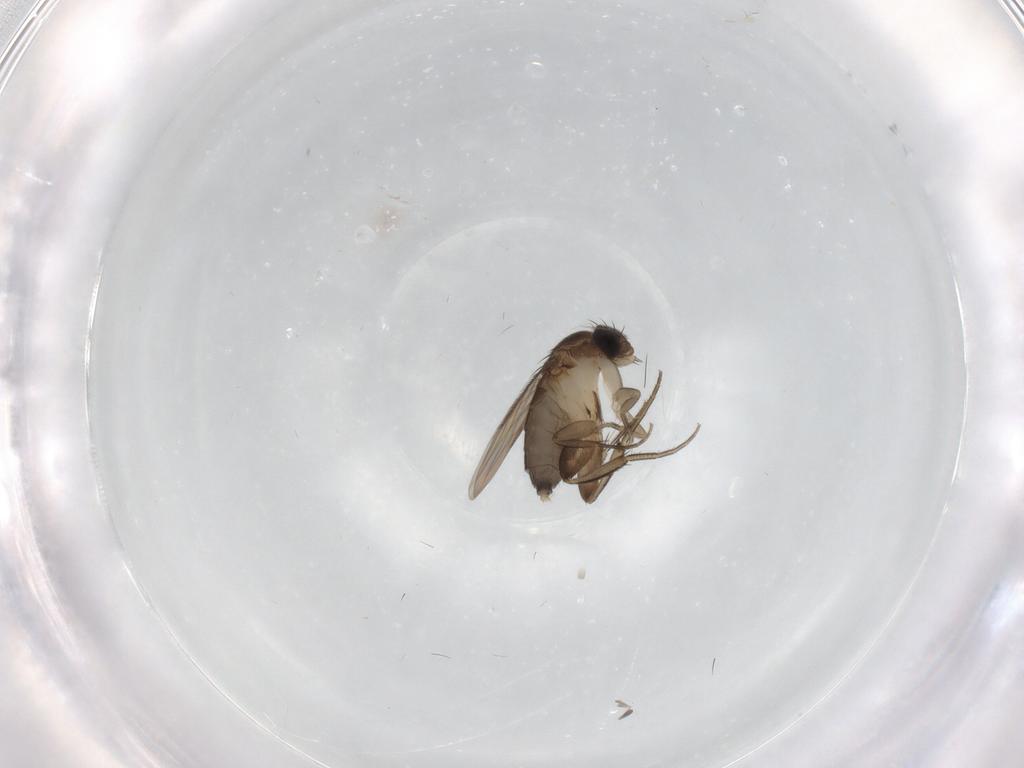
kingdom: Animalia
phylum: Arthropoda
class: Insecta
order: Diptera
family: Phoridae
